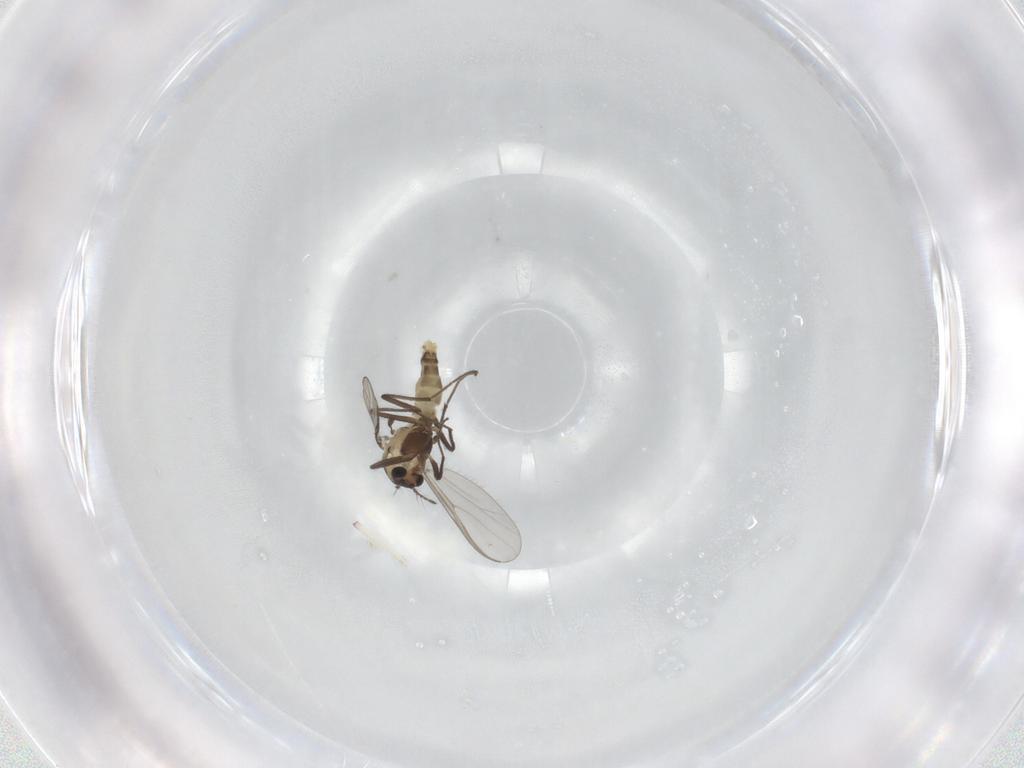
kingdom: Animalia
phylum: Arthropoda
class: Insecta
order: Diptera
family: Chironomidae
